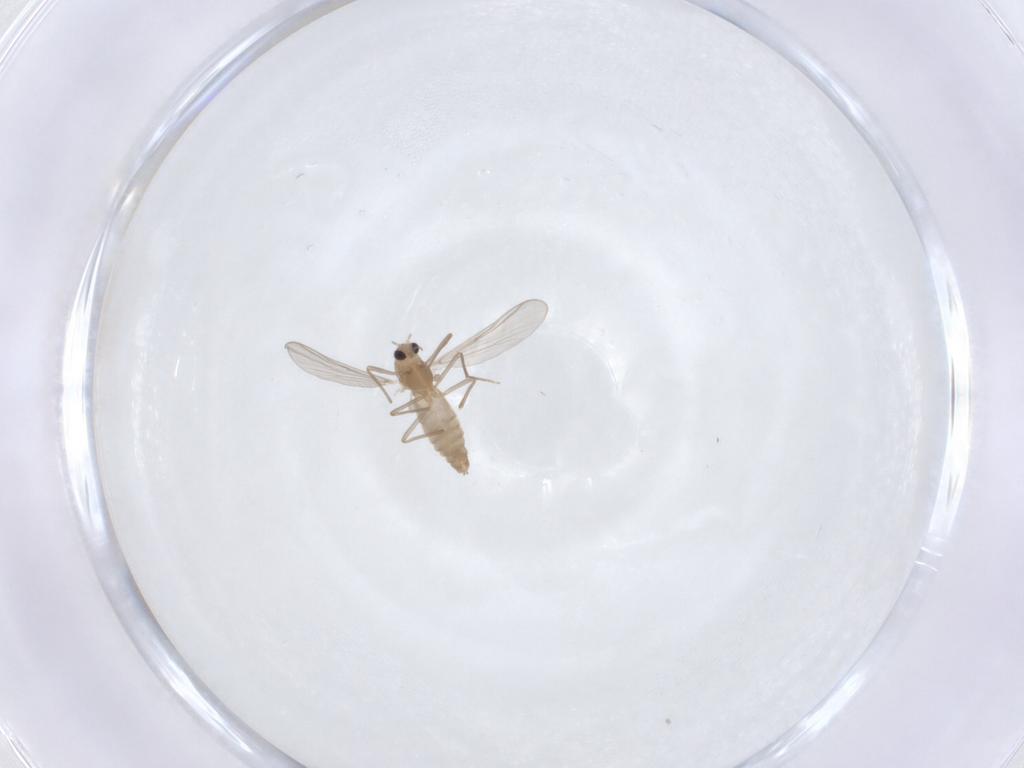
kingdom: Animalia
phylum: Arthropoda
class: Insecta
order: Diptera
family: Chironomidae
